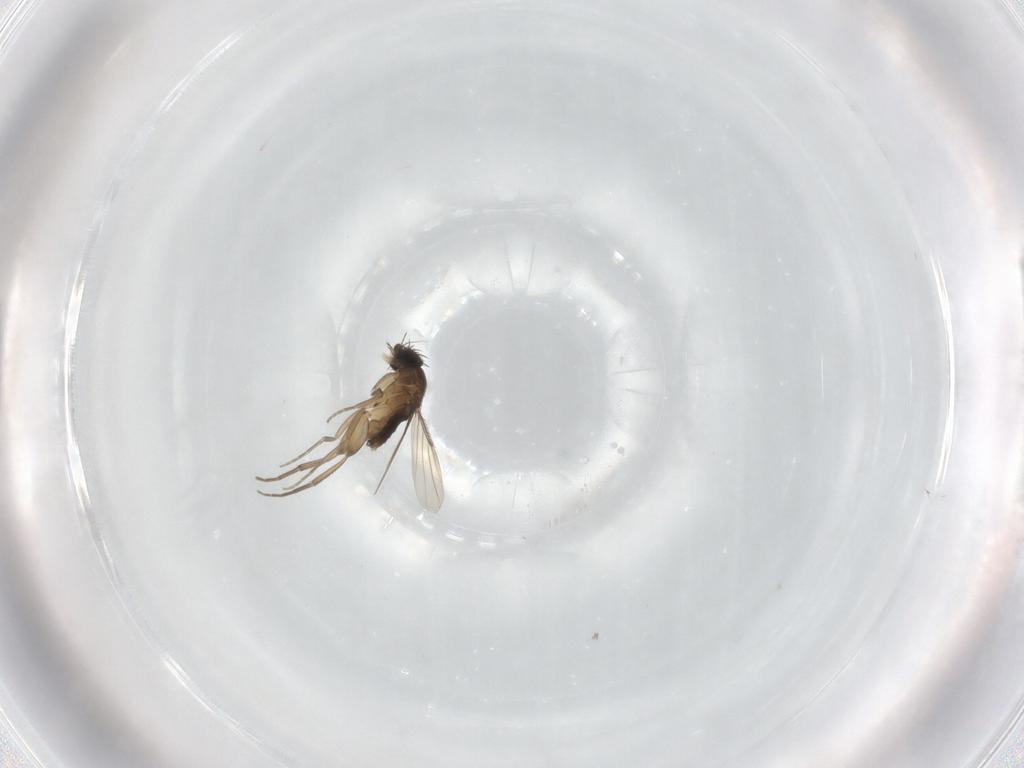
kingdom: Animalia
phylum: Arthropoda
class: Insecta
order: Diptera
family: Phoridae
